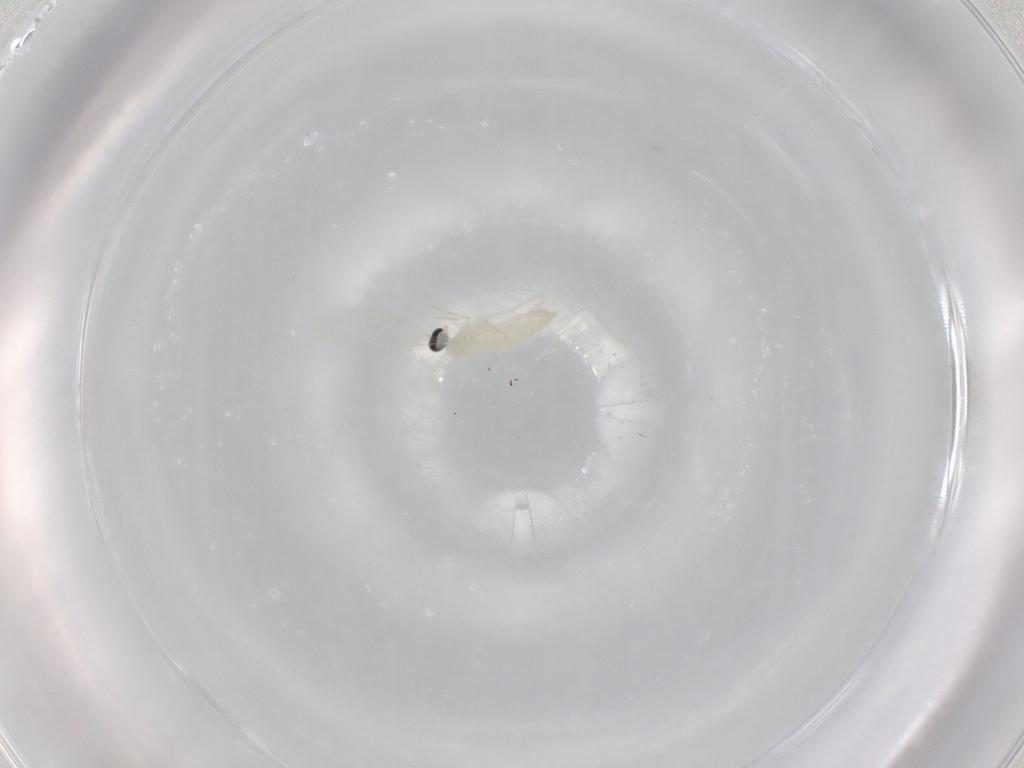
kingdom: Animalia
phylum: Arthropoda
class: Insecta
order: Diptera
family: Cecidomyiidae
